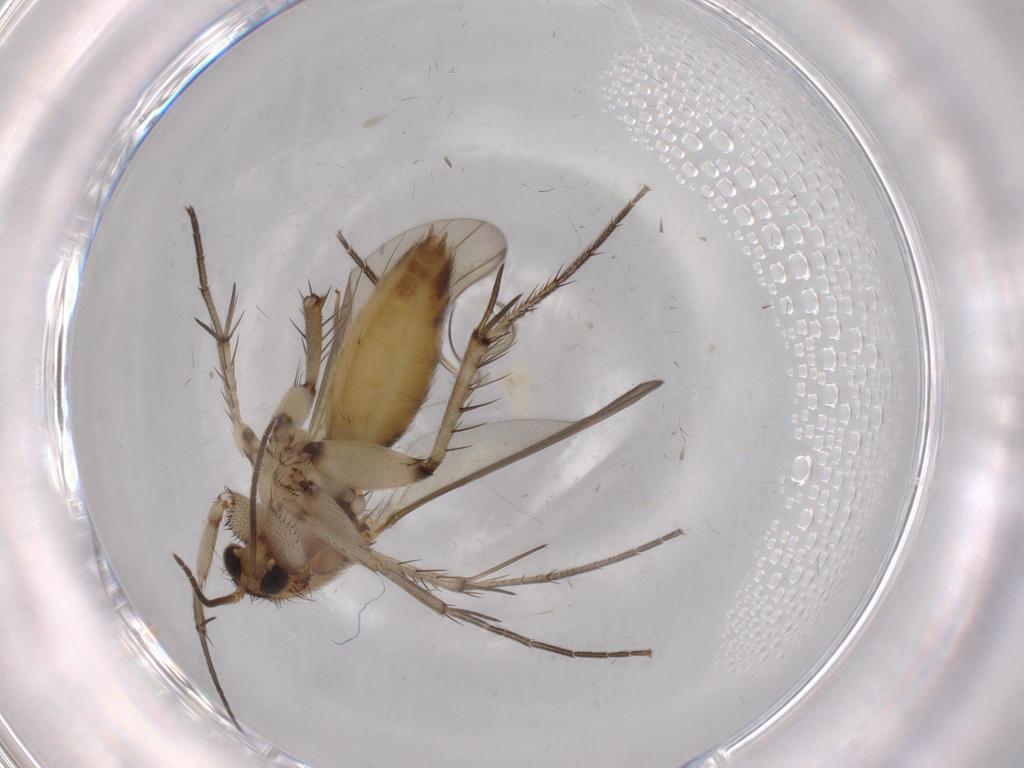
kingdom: Animalia
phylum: Arthropoda
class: Insecta
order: Diptera
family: Mycetophilidae
